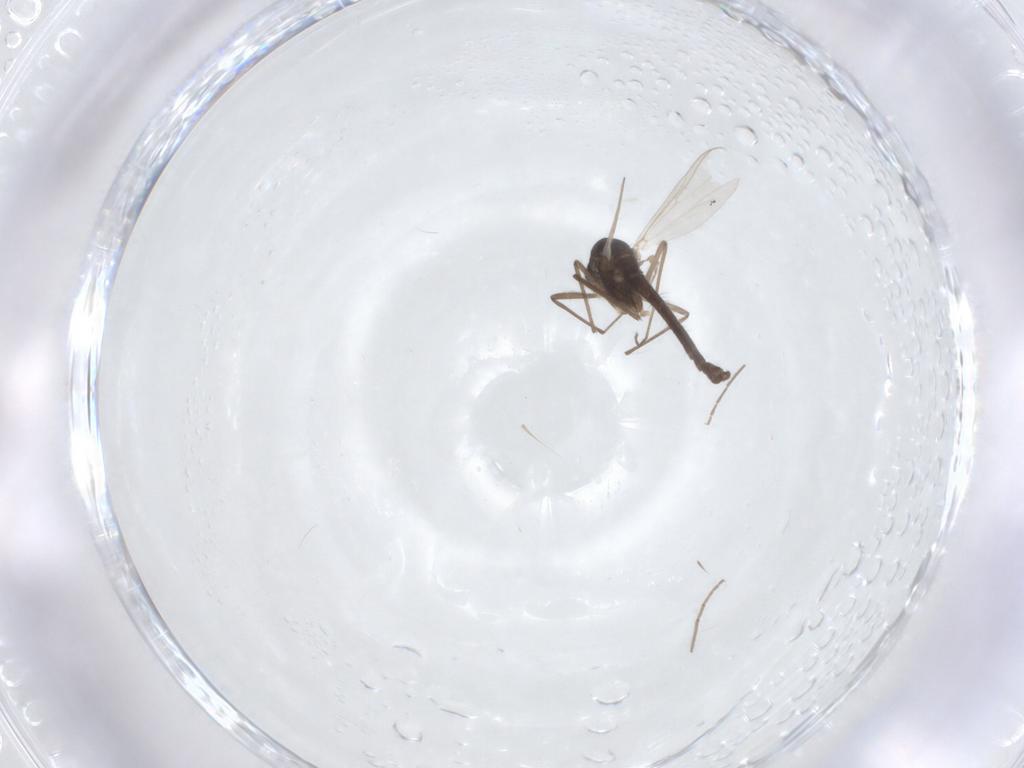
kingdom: Animalia
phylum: Arthropoda
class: Insecta
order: Diptera
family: Chironomidae
